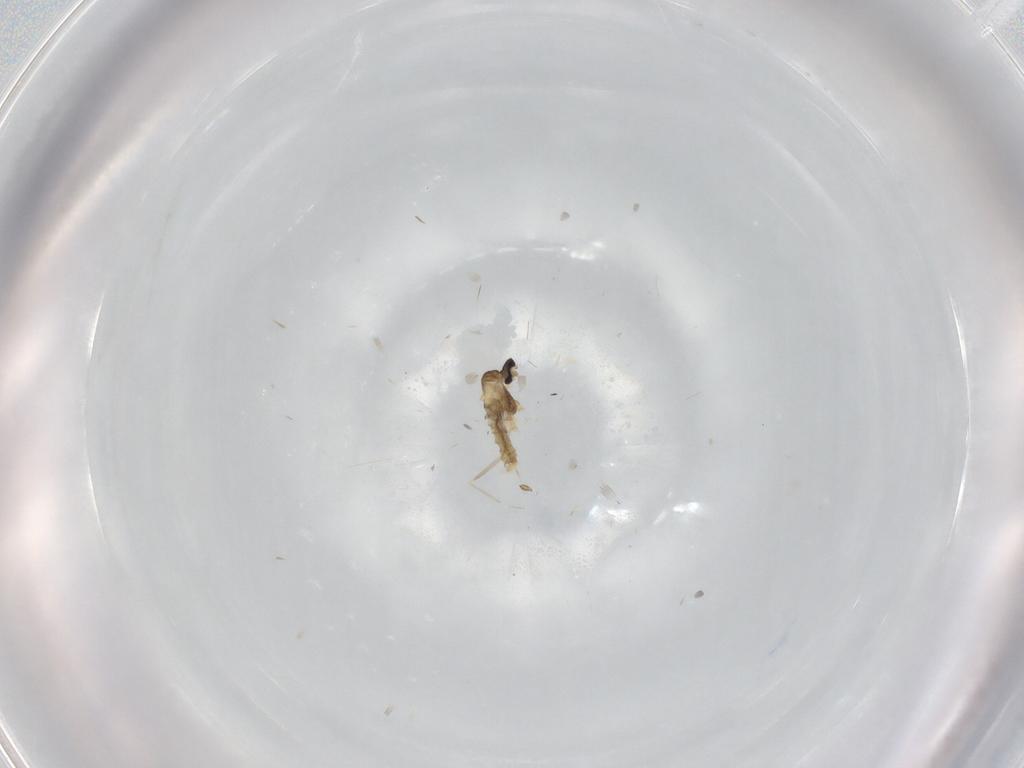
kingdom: Animalia
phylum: Arthropoda
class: Insecta
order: Diptera
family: Cecidomyiidae
